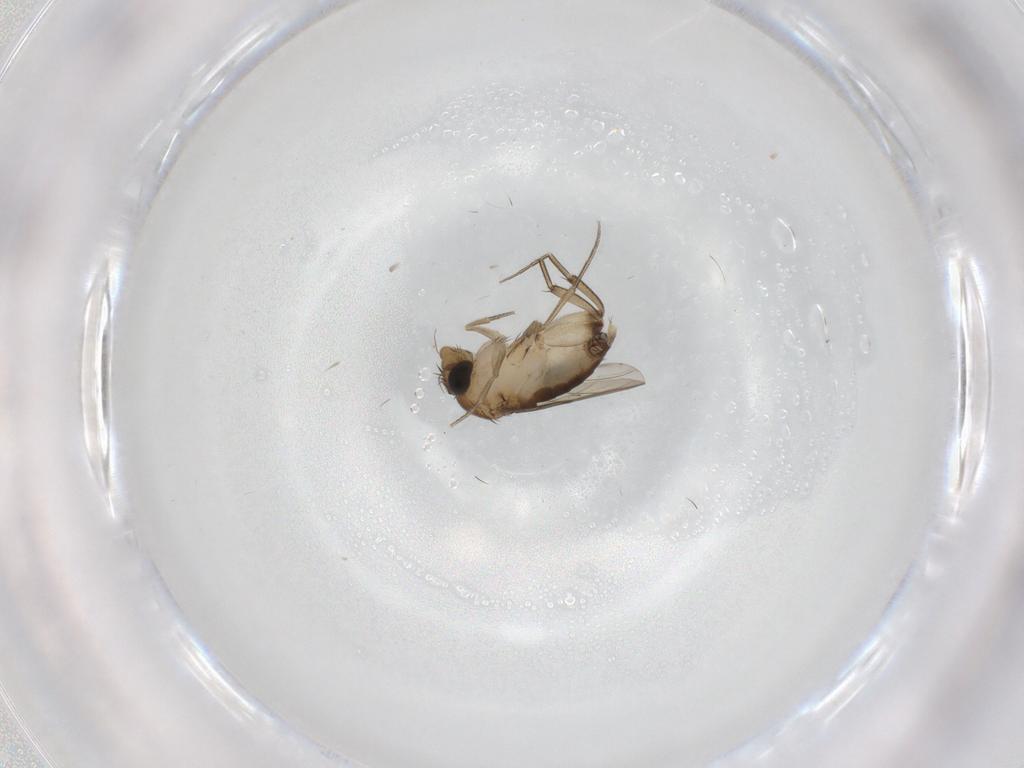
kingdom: Animalia
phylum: Arthropoda
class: Insecta
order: Diptera
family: Phoridae
